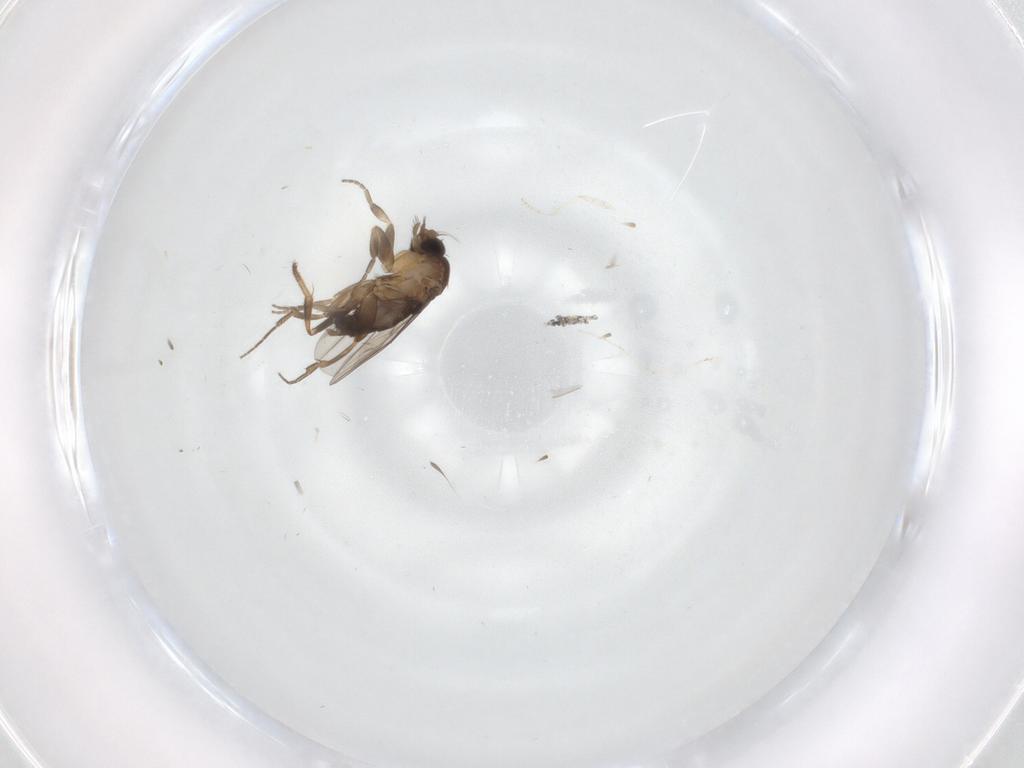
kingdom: Animalia
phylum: Arthropoda
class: Insecta
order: Diptera
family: Cecidomyiidae
